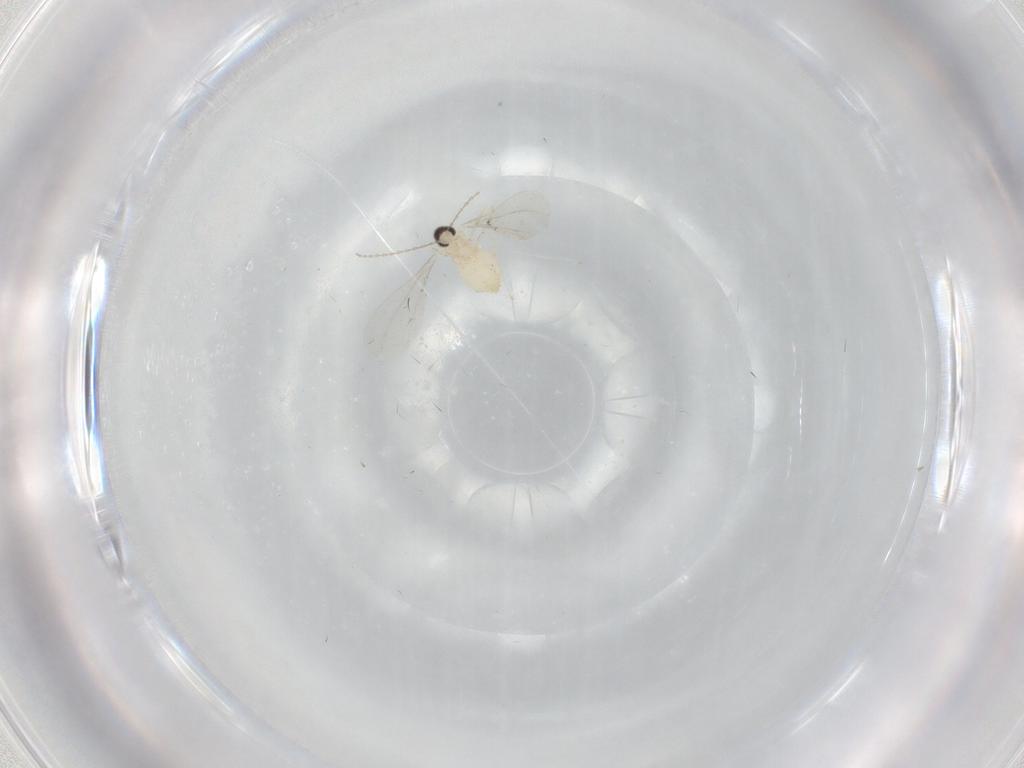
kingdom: Animalia
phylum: Arthropoda
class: Insecta
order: Diptera
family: Cecidomyiidae
